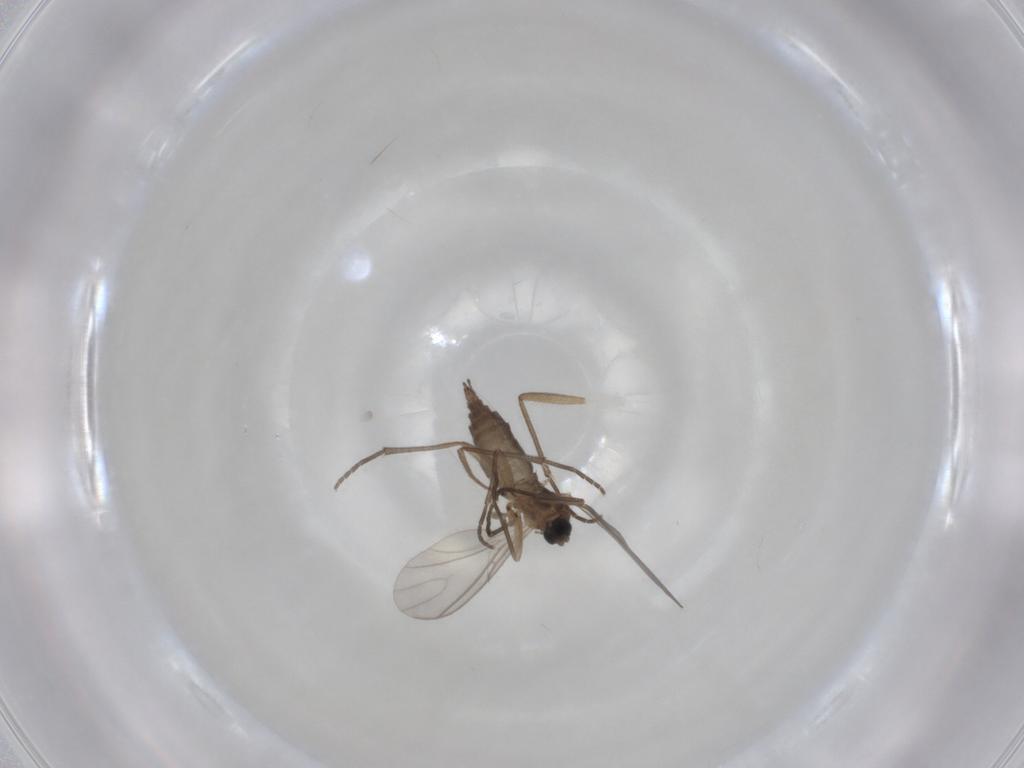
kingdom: Animalia
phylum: Arthropoda
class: Insecta
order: Diptera
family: Sciaridae
